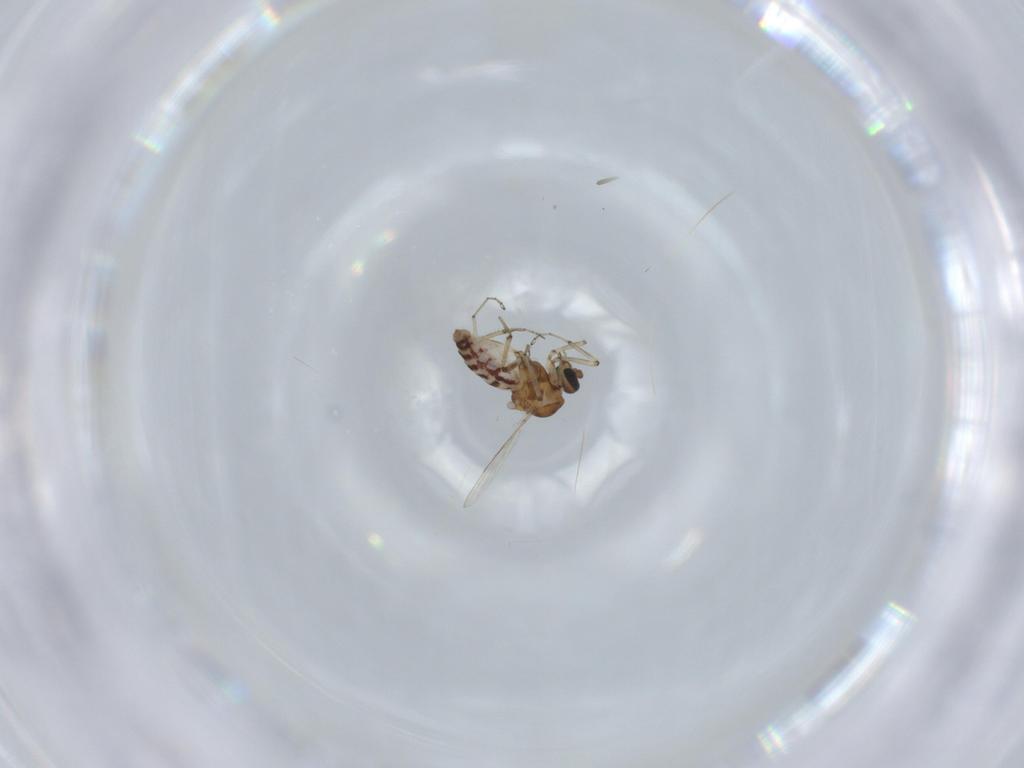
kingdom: Animalia
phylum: Arthropoda
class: Insecta
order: Diptera
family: Ceratopogonidae
